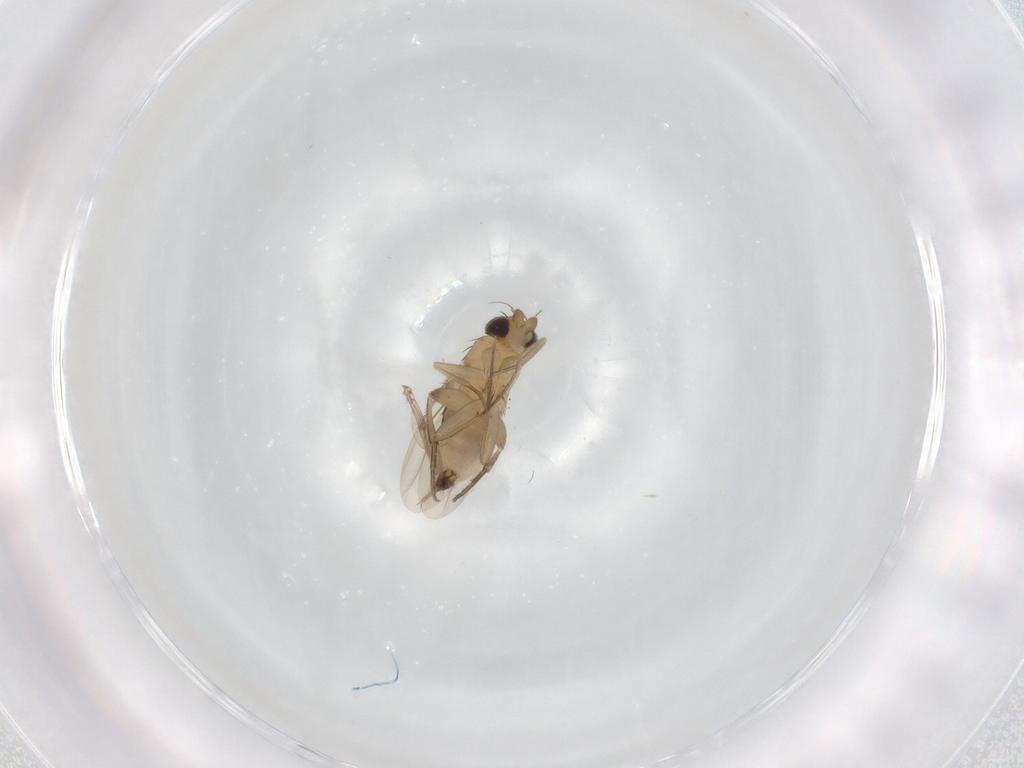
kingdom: Animalia
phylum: Arthropoda
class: Insecta
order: Diptera
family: Phoridae
